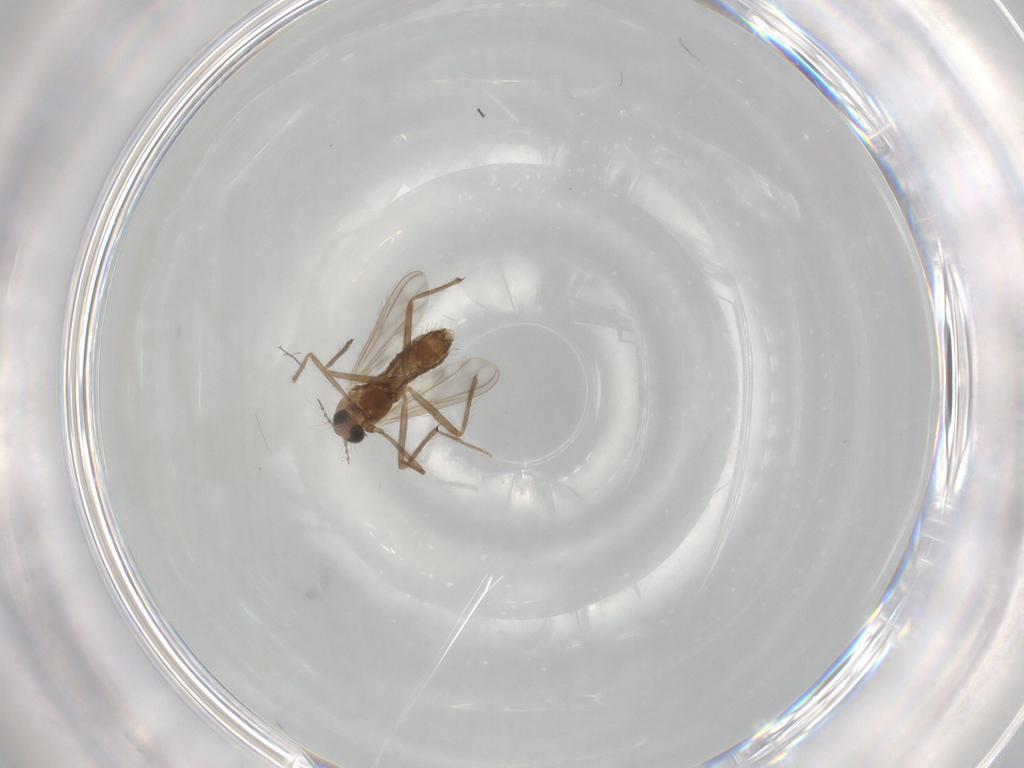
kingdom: Animalia
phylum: Arthropoda
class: Insecta
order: Diptera
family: Chironomidae
